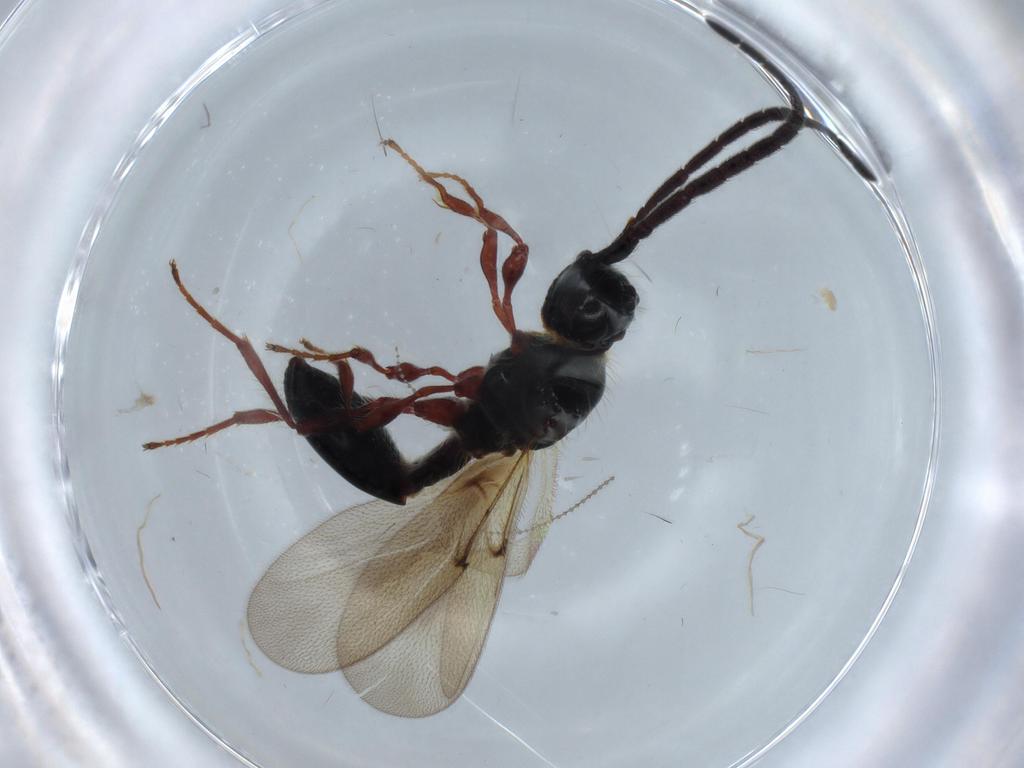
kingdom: Animalia
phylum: Arthropoda
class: Insecta
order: Hymenoptera
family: Diapriidae
